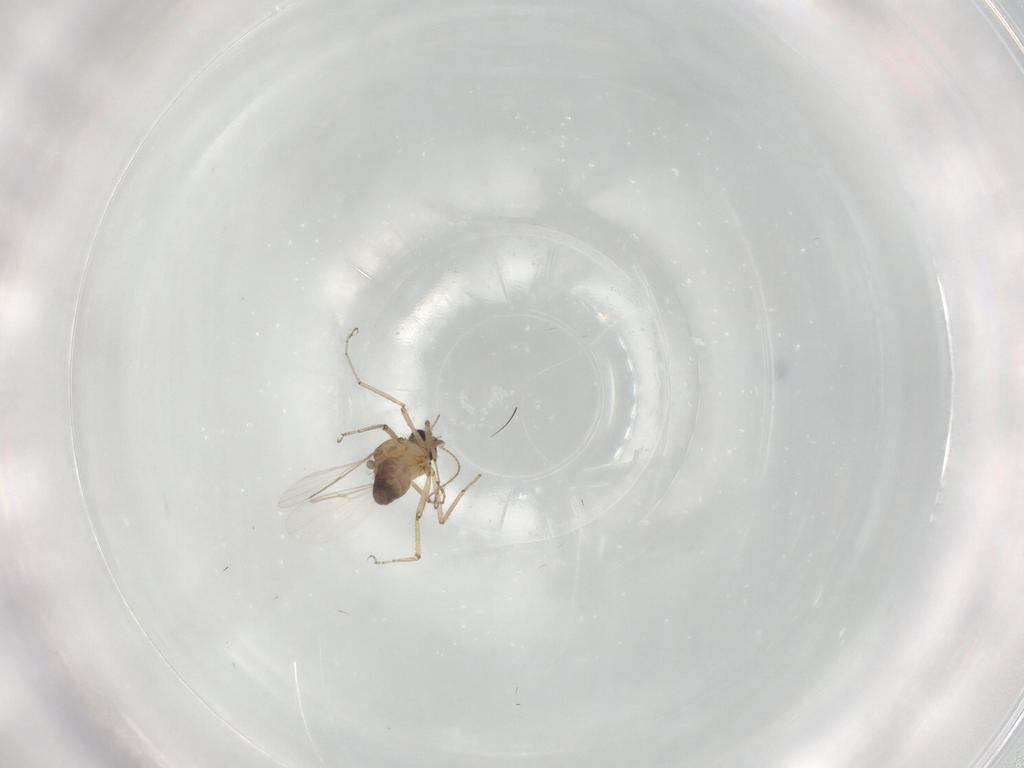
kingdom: Animalia
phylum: Arthropoda
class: Insecta
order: Diptera
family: Ceratopogonidae
